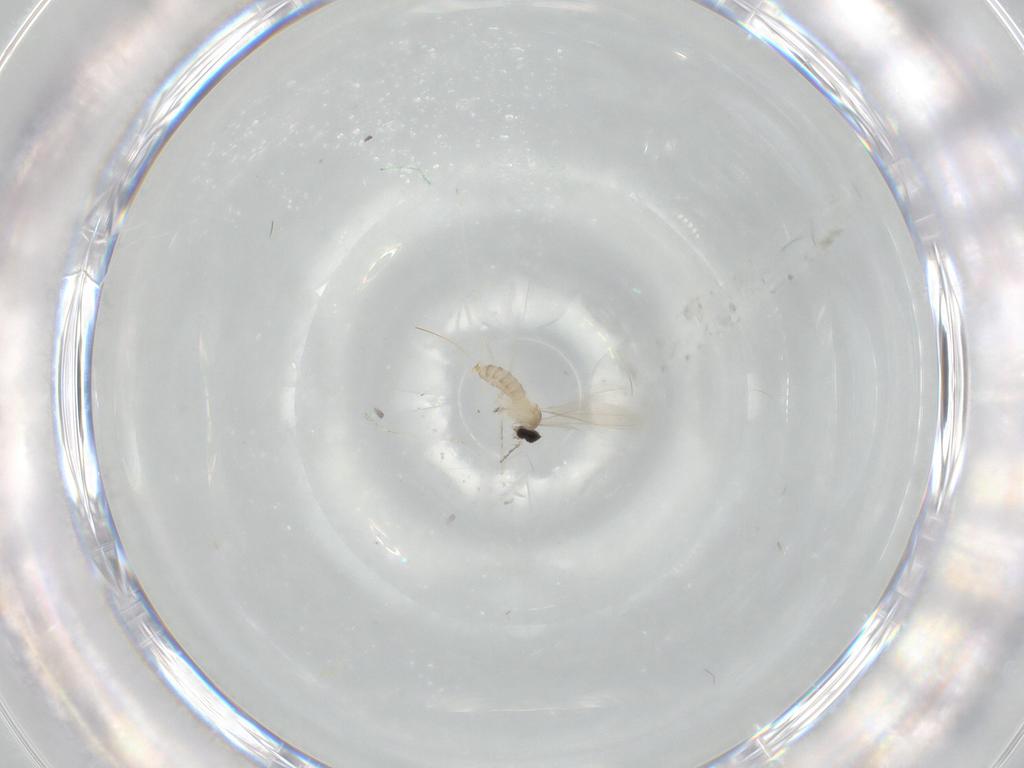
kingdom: Animalia
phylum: Arthropoda
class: Insecta
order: Diptera
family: Cecidomyiidae
